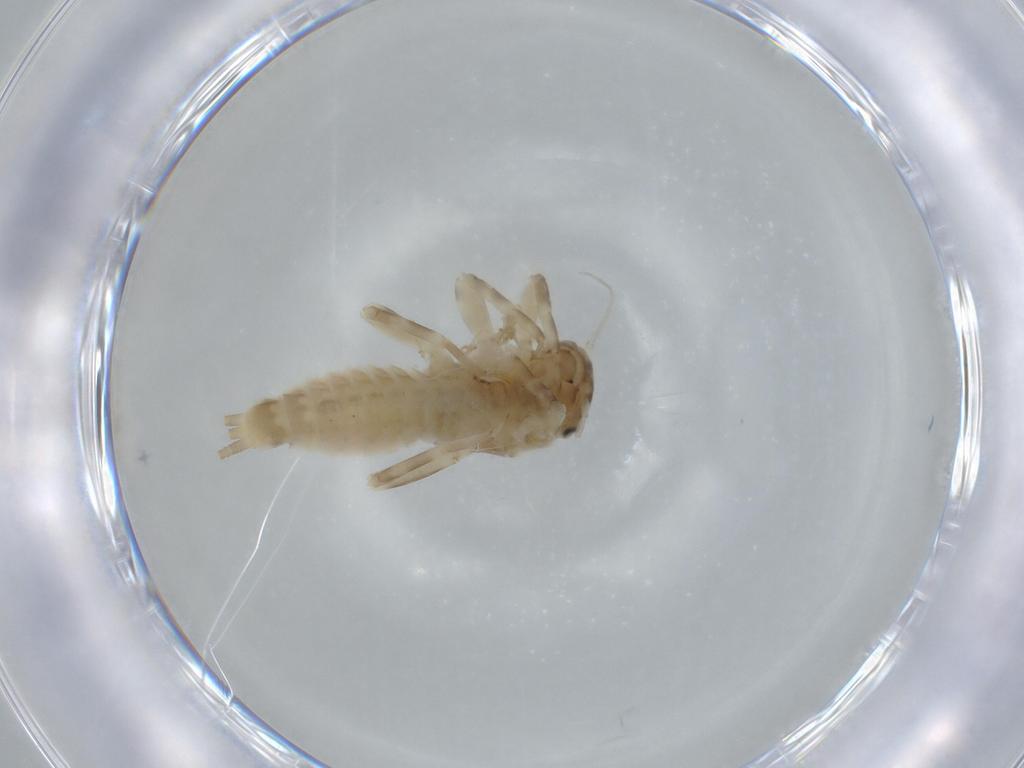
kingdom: Animalia
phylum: Arthropoda
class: Insecta
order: Ephemeroptera
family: Ephemerellidae
